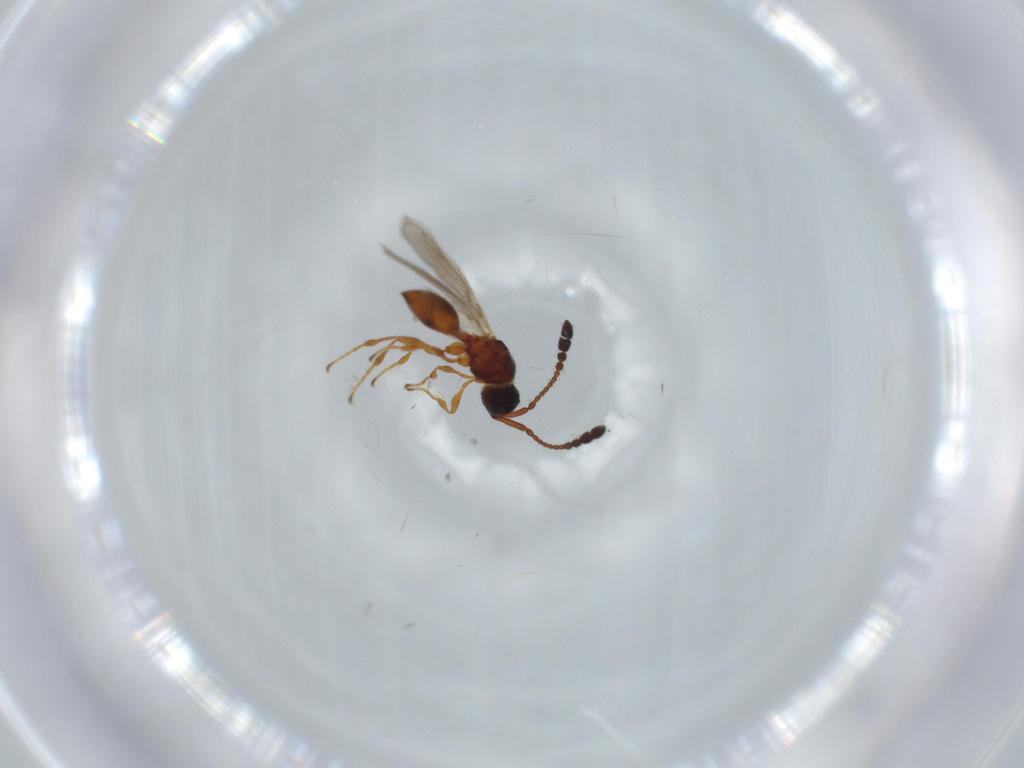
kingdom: Animalia
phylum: Arthropoda
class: Insecta
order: Hymenoptera
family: Diapriidae
